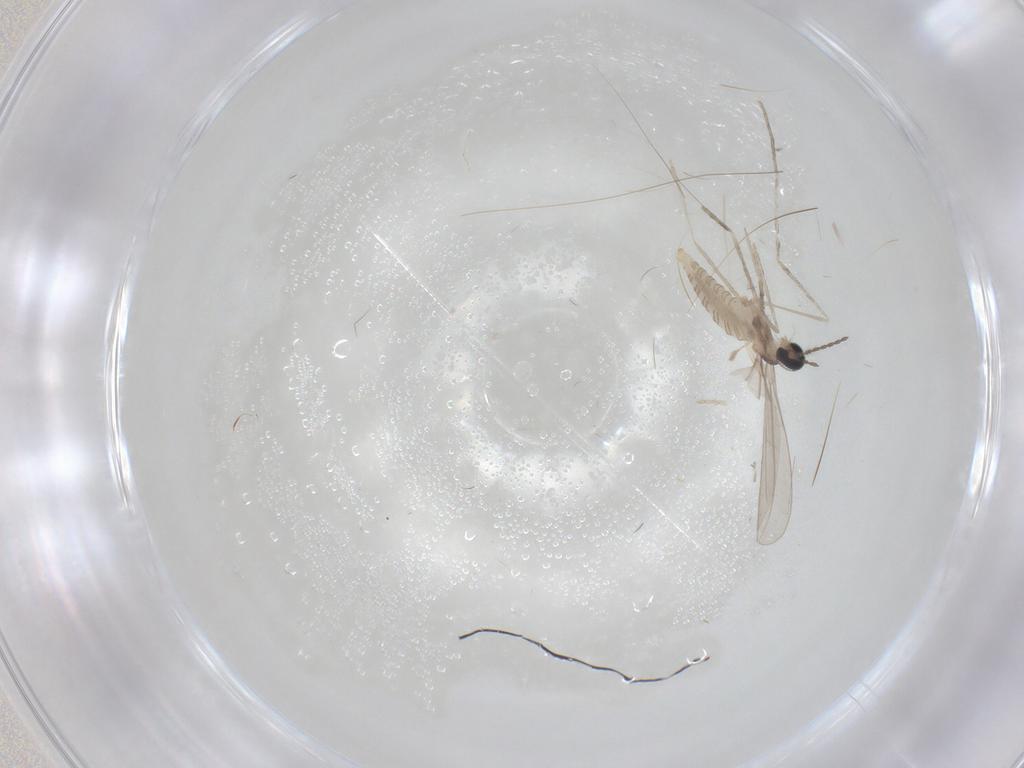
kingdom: Animalia
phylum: Arthropoda
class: Insecta
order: Diptera
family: Cecidomyiidae
